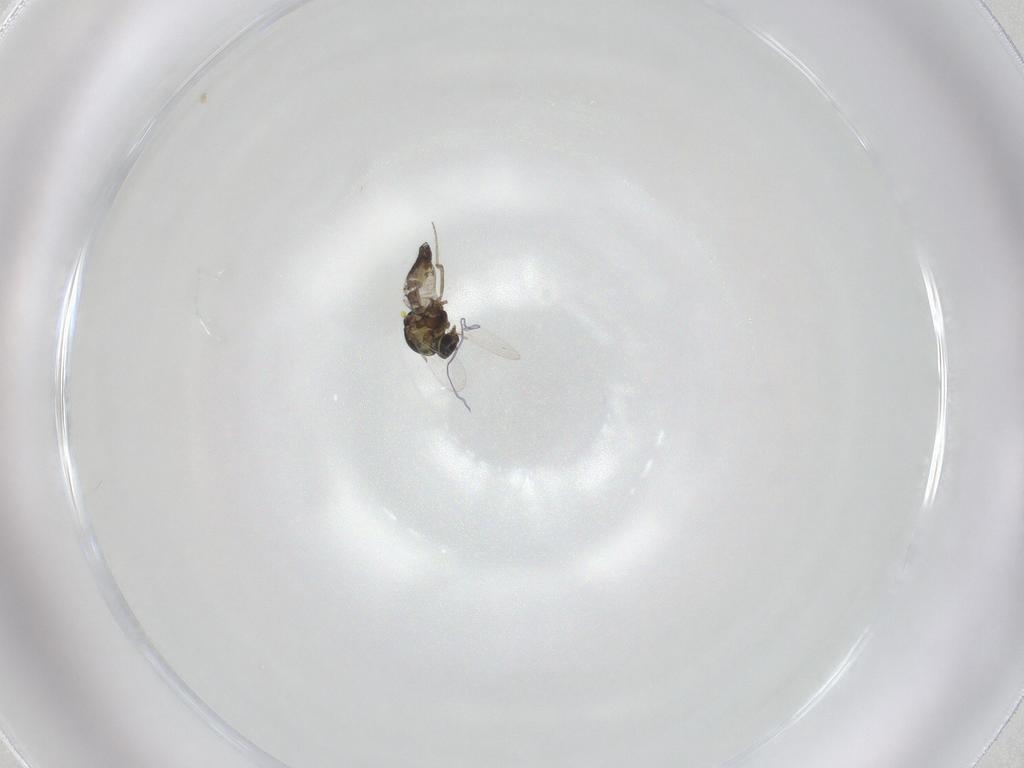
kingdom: Animalia
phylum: Arthropoda
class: Insecta
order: Diptera
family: Ceratopogonidae
